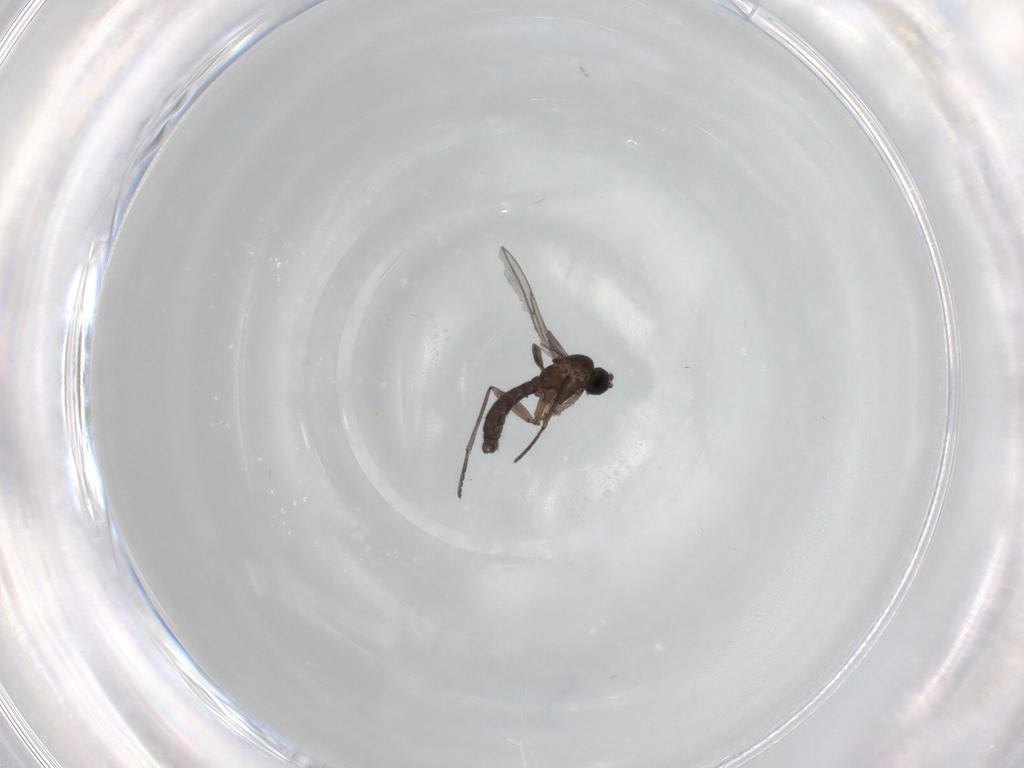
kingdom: Animalia
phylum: Arthropoda
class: Insecta
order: Diptera
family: Sciaridae
